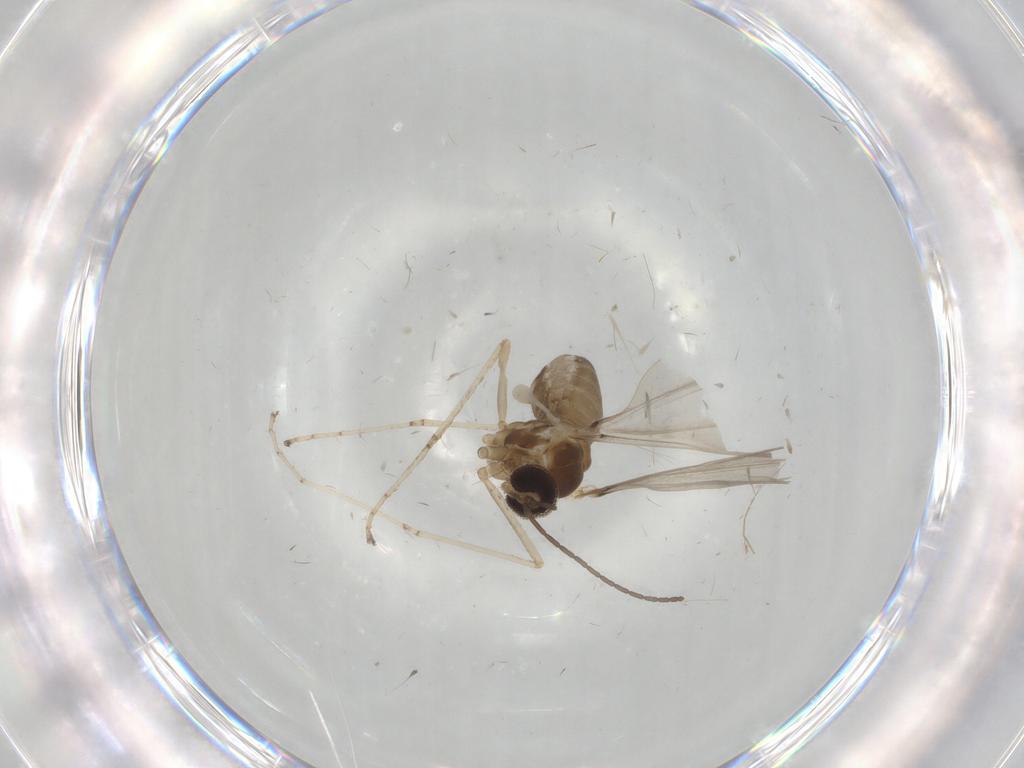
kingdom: Animalia
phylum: Arthropoda
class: Insecta
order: Diptera
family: Chironomidae
